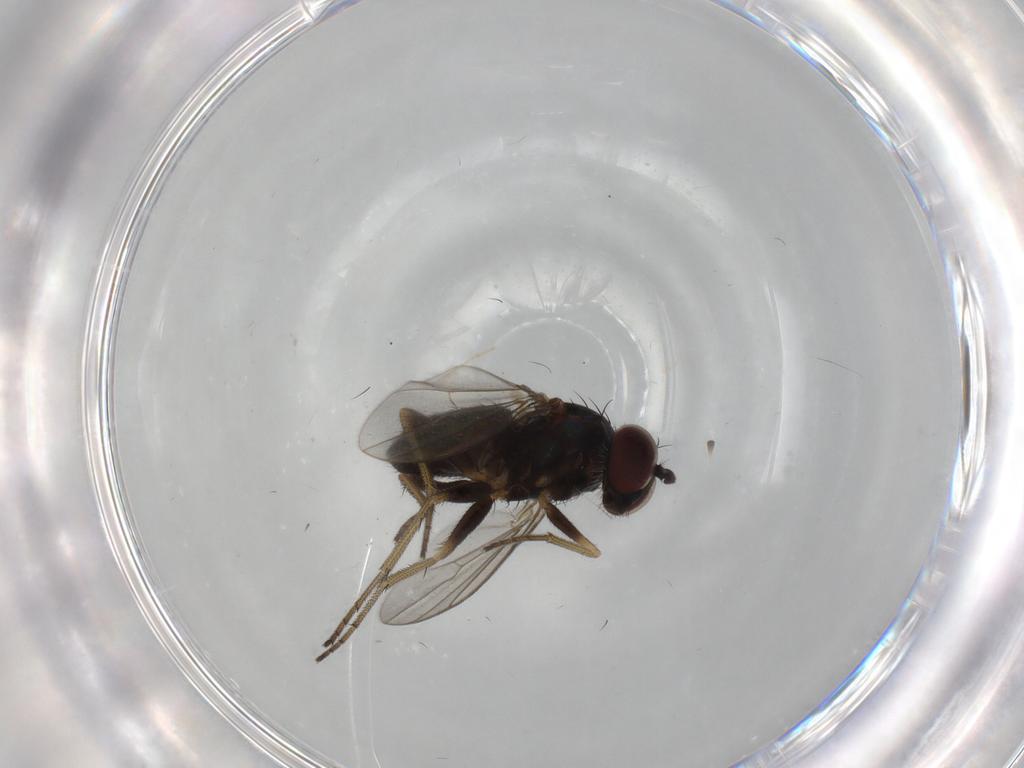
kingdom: Animalia
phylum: Arthropoda
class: Insecta
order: Diptera
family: Dolichopodidae
